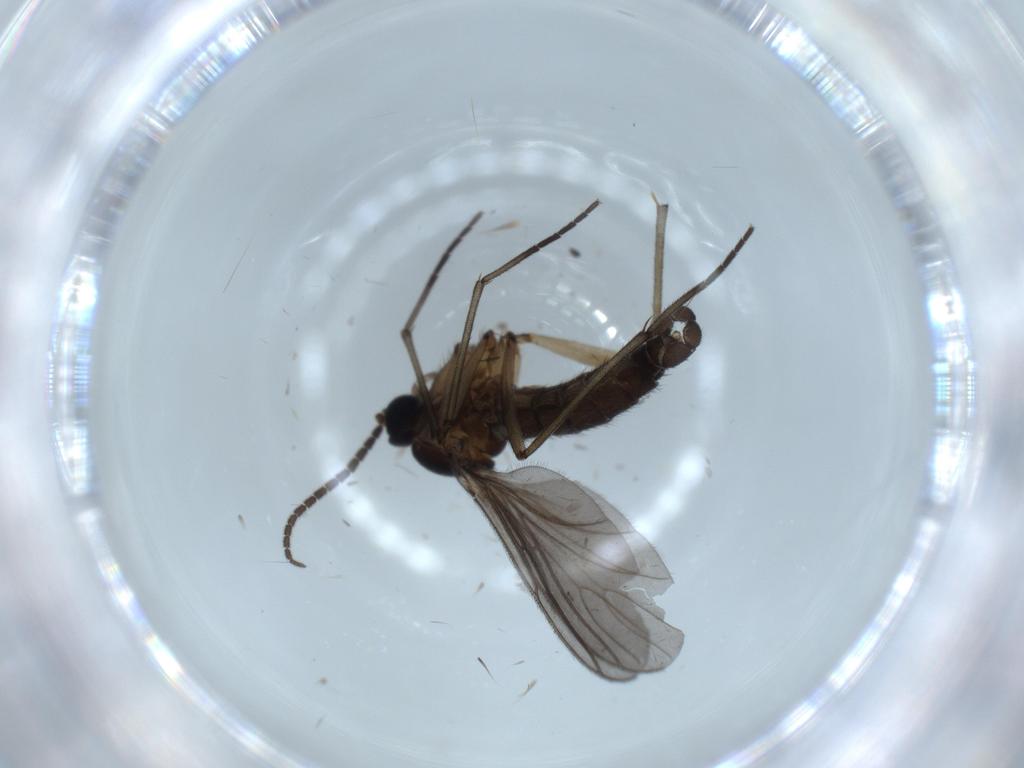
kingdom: Animalia
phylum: Arthropoda
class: Insecta
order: Diptera
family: Sciaridae
